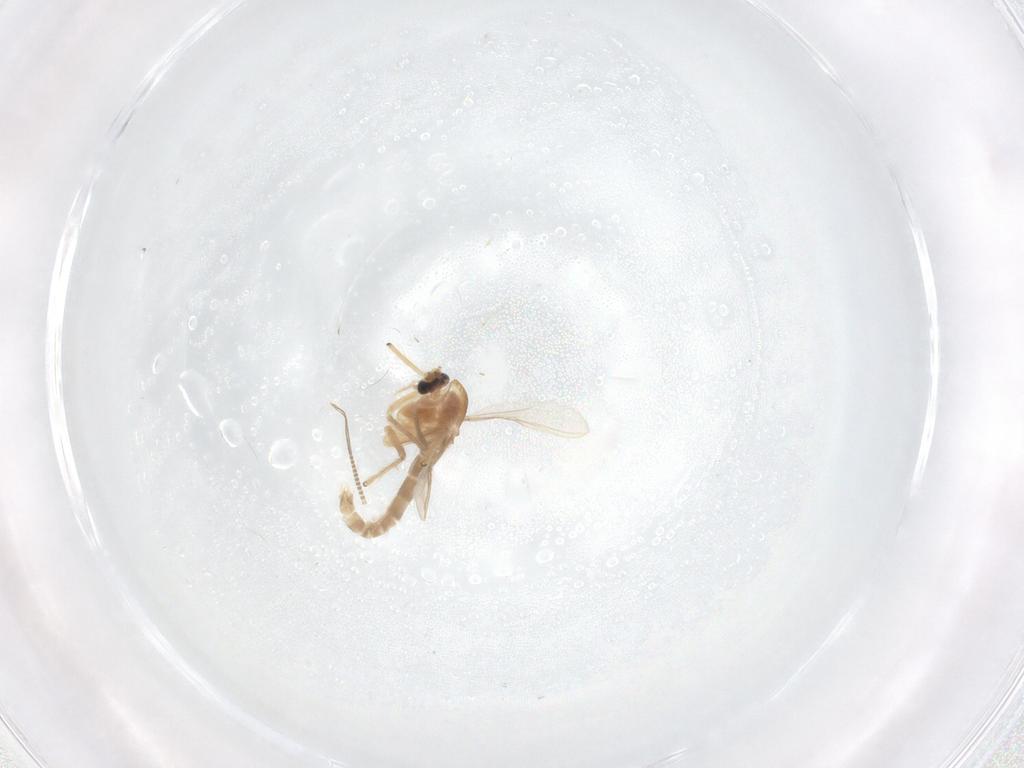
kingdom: Animalia
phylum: Arthropoda
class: Insecta
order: Diptera
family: Chironomidae
